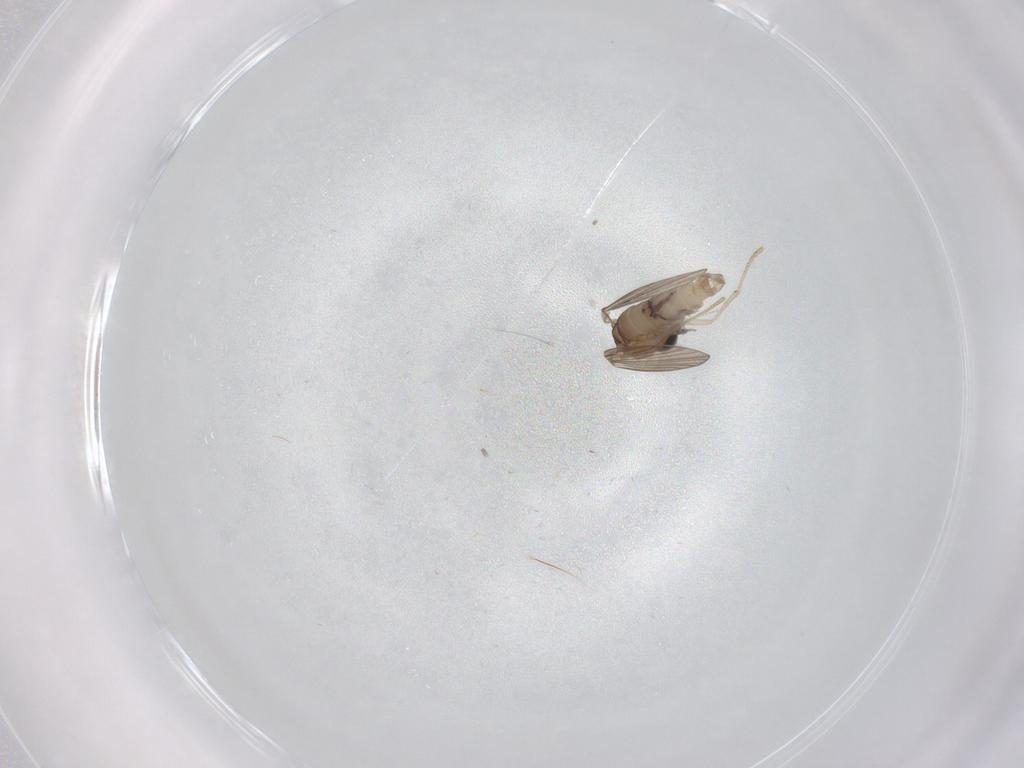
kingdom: Animalia
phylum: Arthropoda
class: Insecta
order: Diptera
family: Psychodidae
